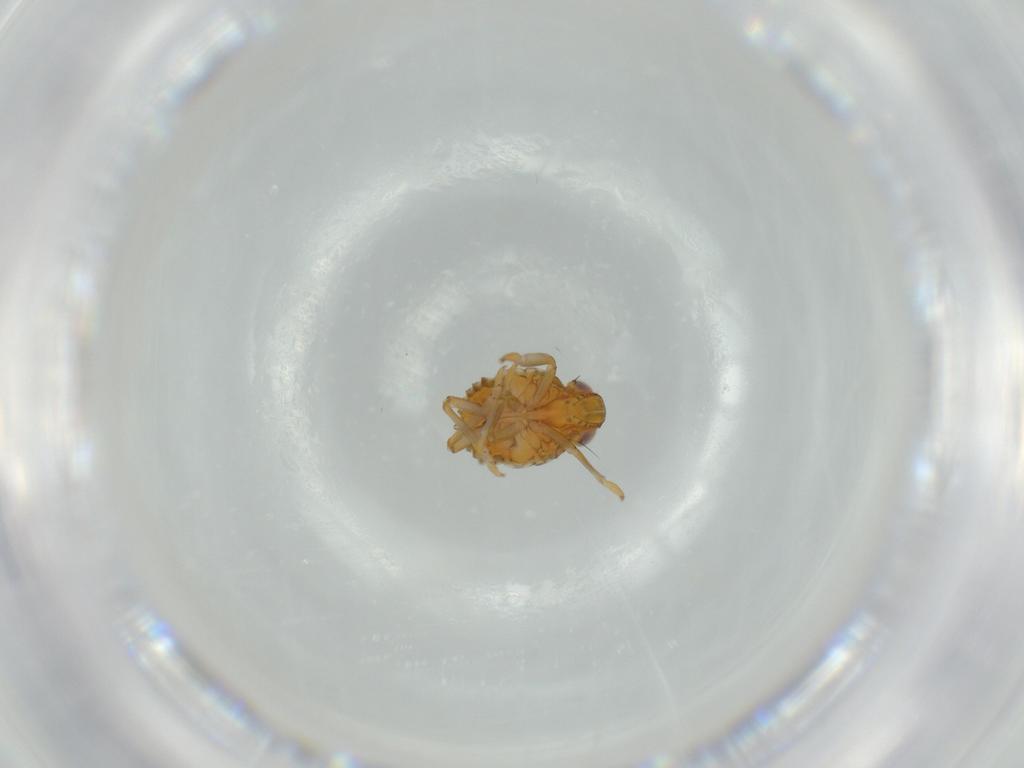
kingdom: Animalia
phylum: Arthropoda
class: Insecta
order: Hemiptera
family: Issidae
